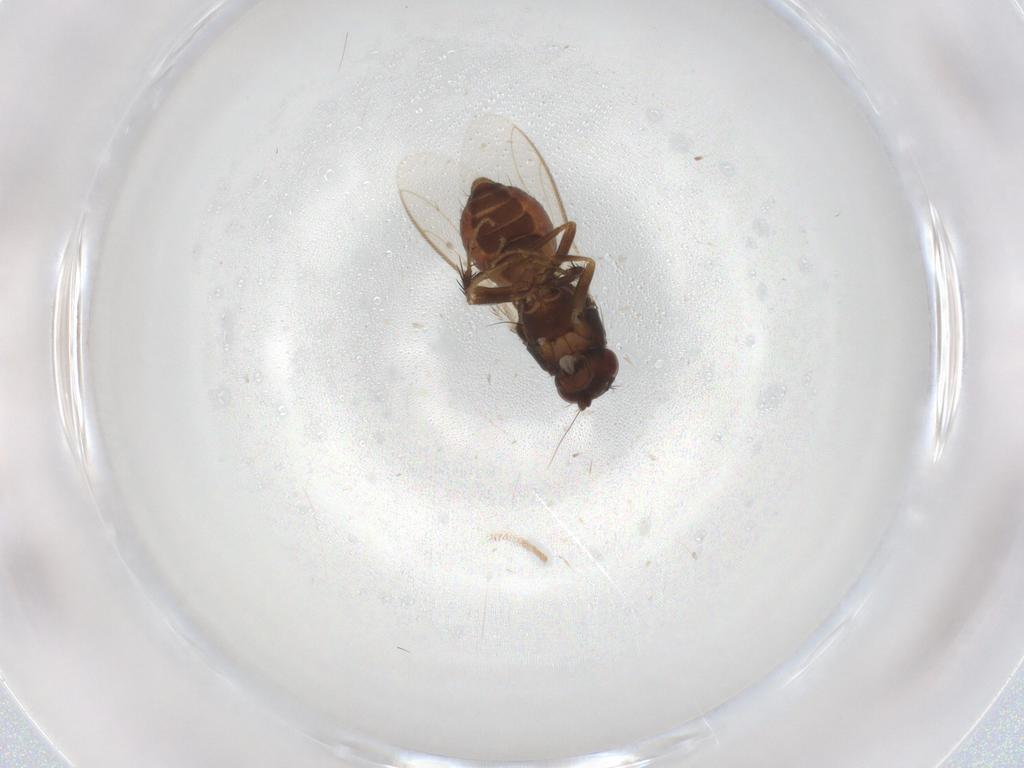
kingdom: Animalia
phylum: Arthropoda
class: Insecta
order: Diptera
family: Sphaeroceridae
